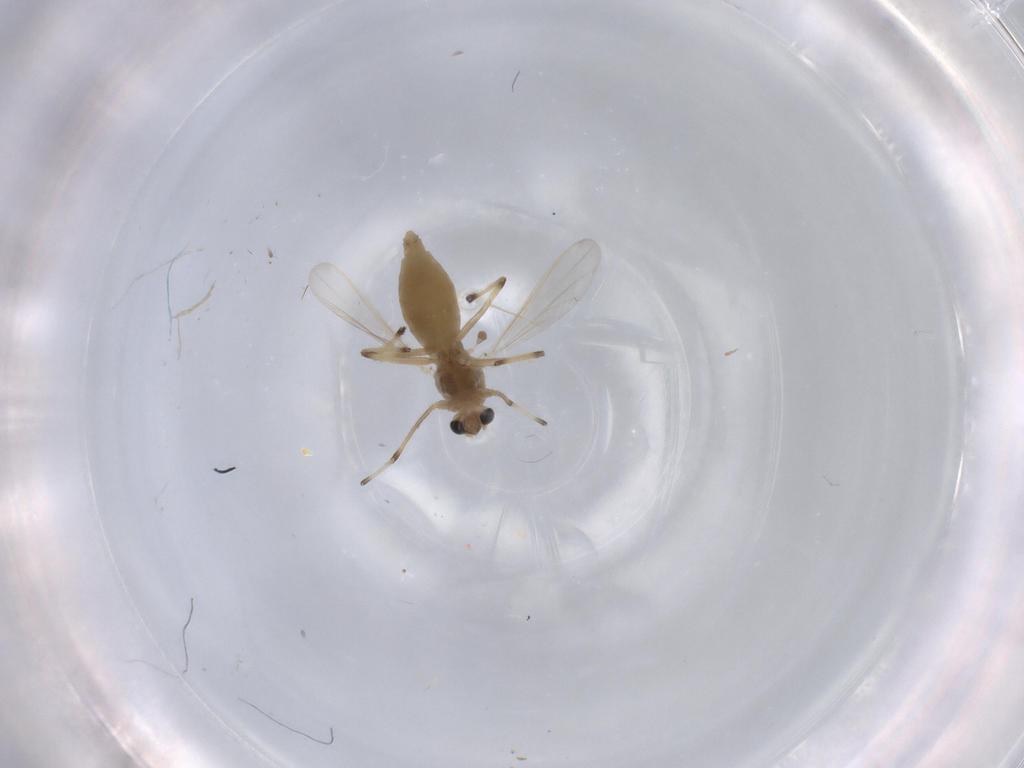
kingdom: Animalia
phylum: Arthropoda
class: Insecta
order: Diptera
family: Chironomidae
